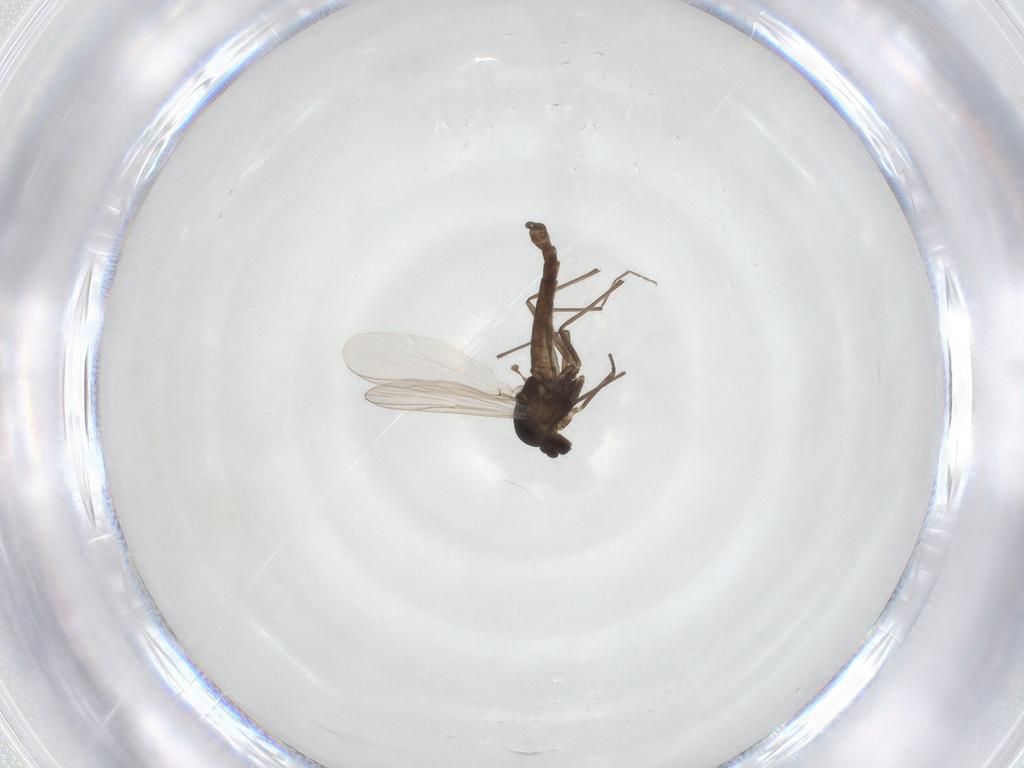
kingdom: Animalia
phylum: Arthropoda
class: Insecta
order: Diptera
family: Chironomidae
